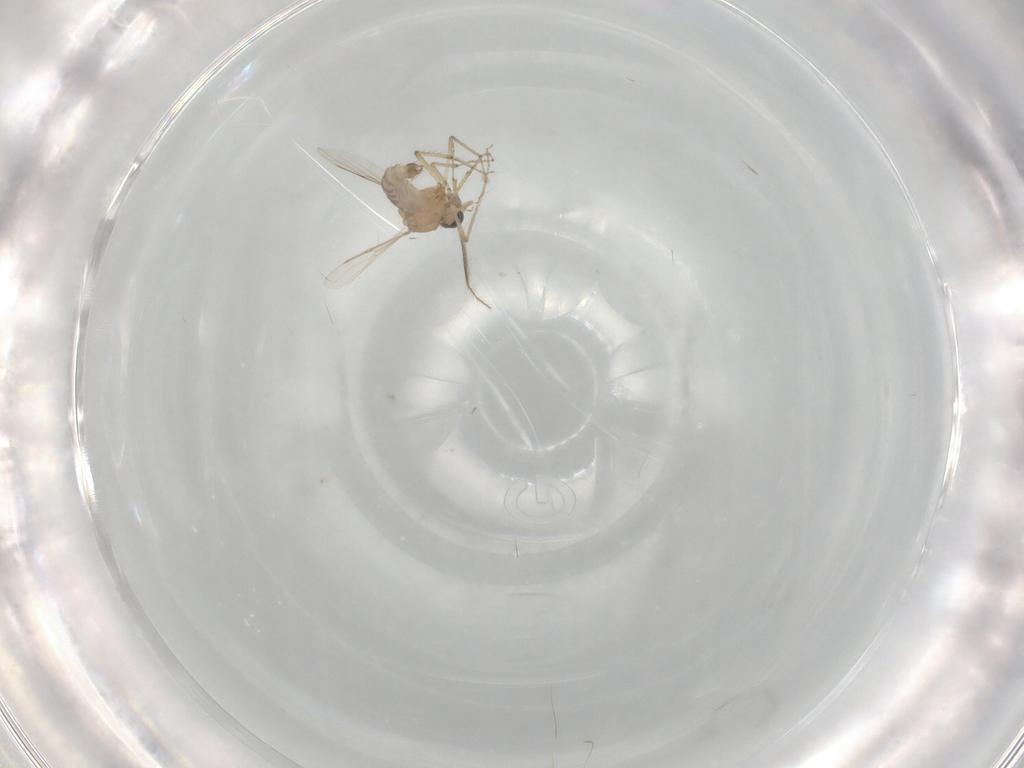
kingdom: Animalia
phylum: Arthropoda
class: Insecta
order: Diptera
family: Ceratopogonidae
